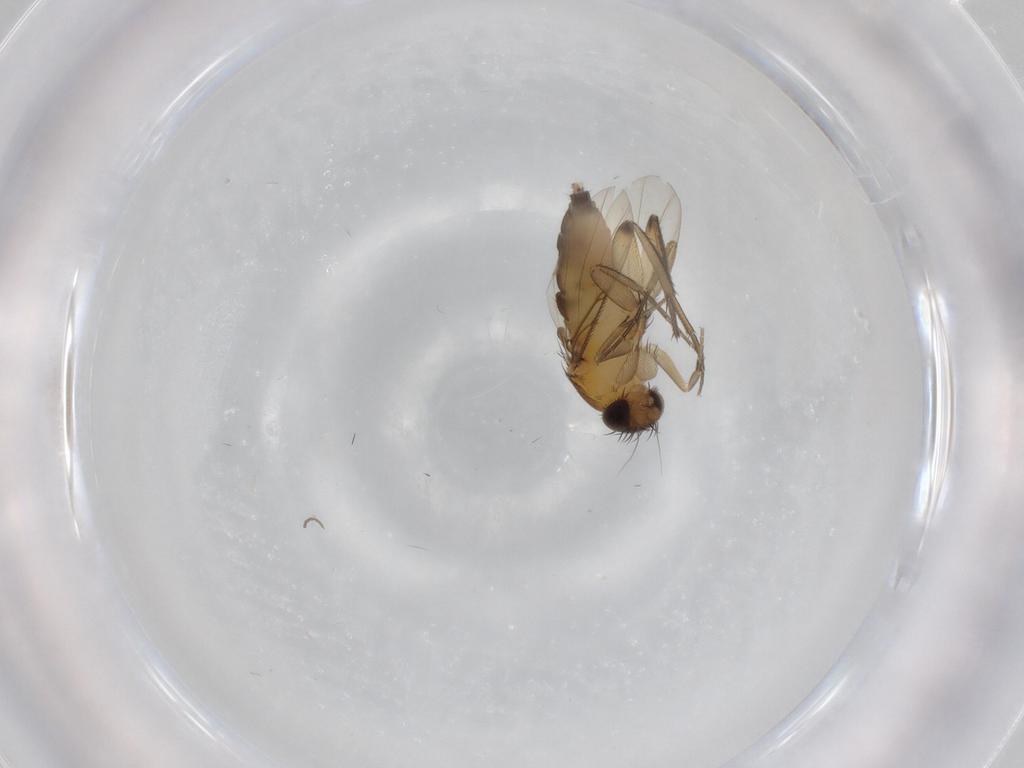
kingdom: Animalia
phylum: Arthropoda
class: Insecta
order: Diptera
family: Phoridae
